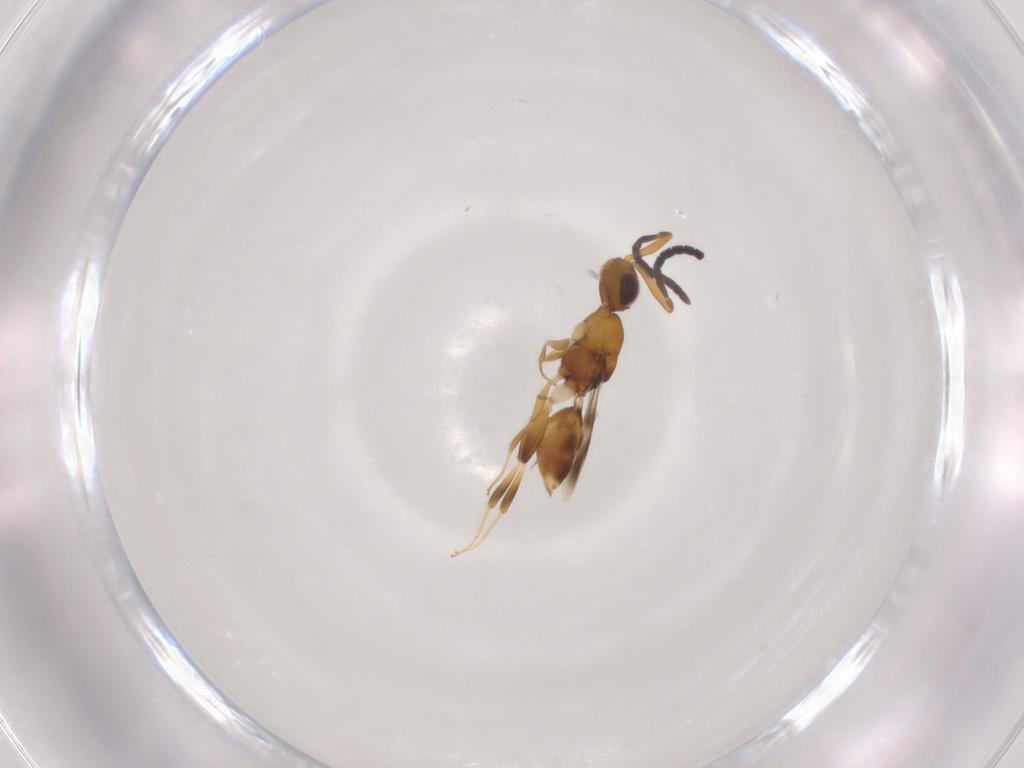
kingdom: Animalia
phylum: Arthropoda
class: Insecta
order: Hymenoptera
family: Megaspilidae
